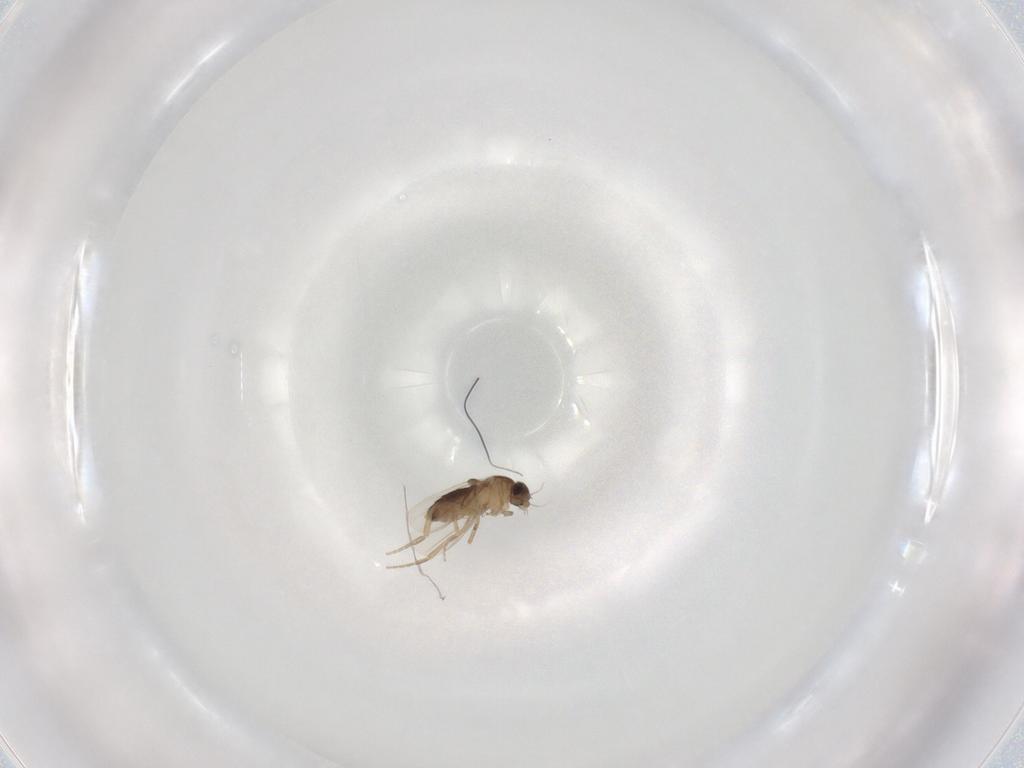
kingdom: Animalia
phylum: Arthropoda
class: Insecta
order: Diptera
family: Phoridae
